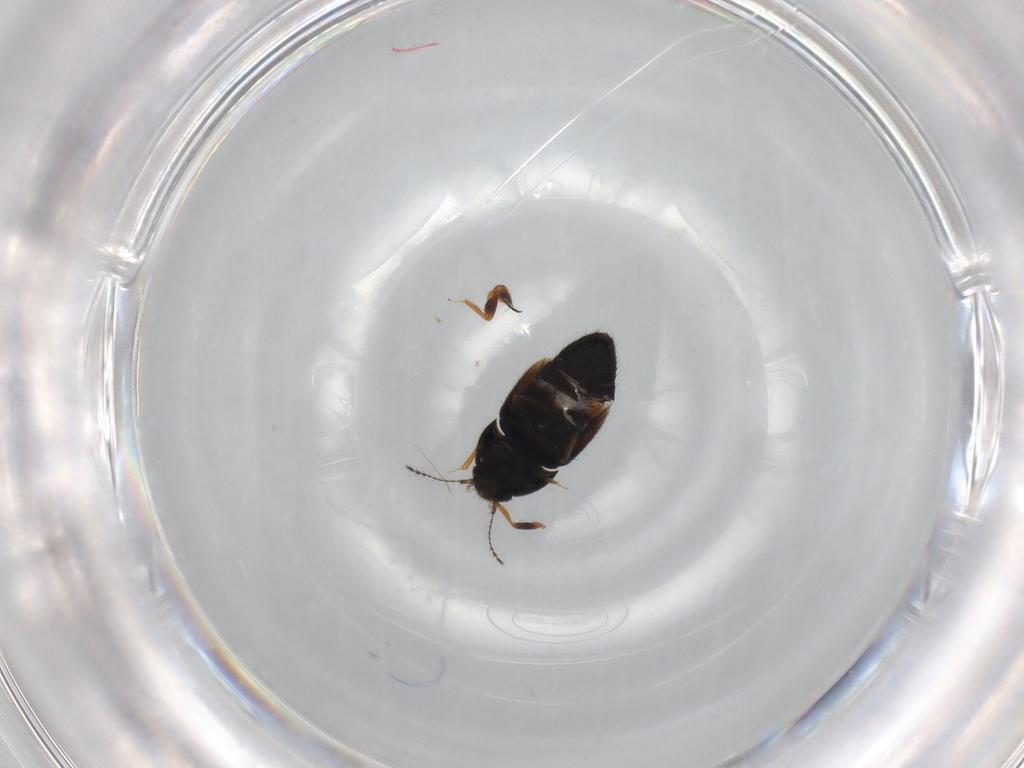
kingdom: Animalia
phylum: Arthropoda
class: Insecta
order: Coleoptera
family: Ptiliidae
